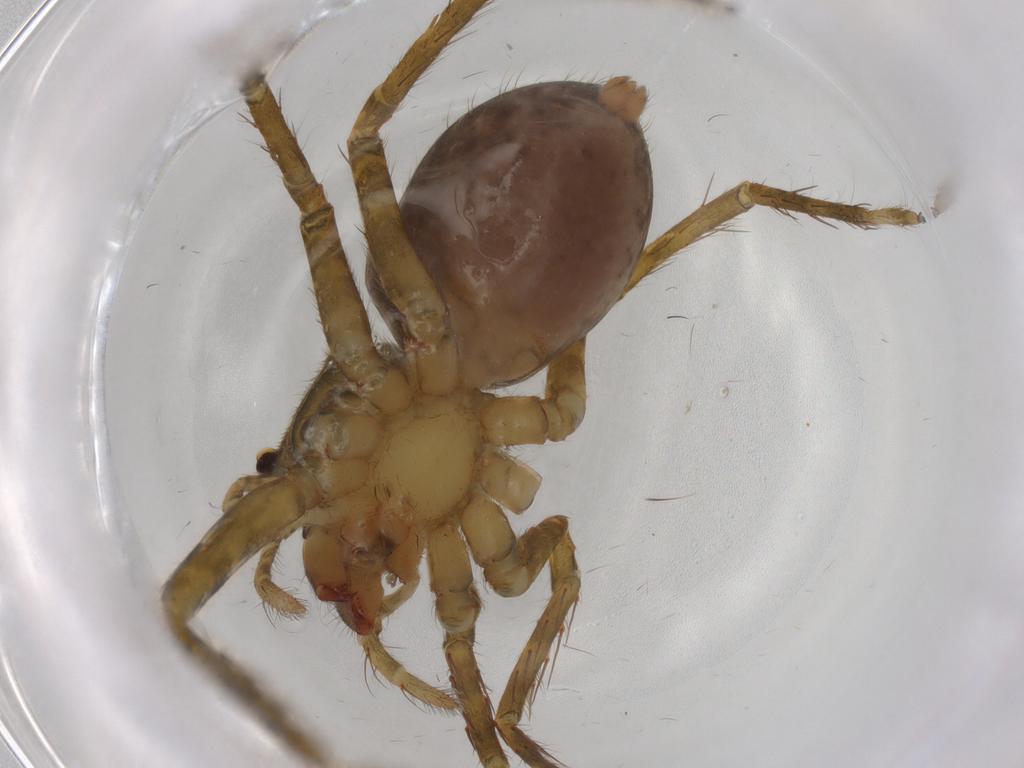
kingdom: Animalia
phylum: Arthropoda
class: Arachnida
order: Araneae
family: Trechaleidae
